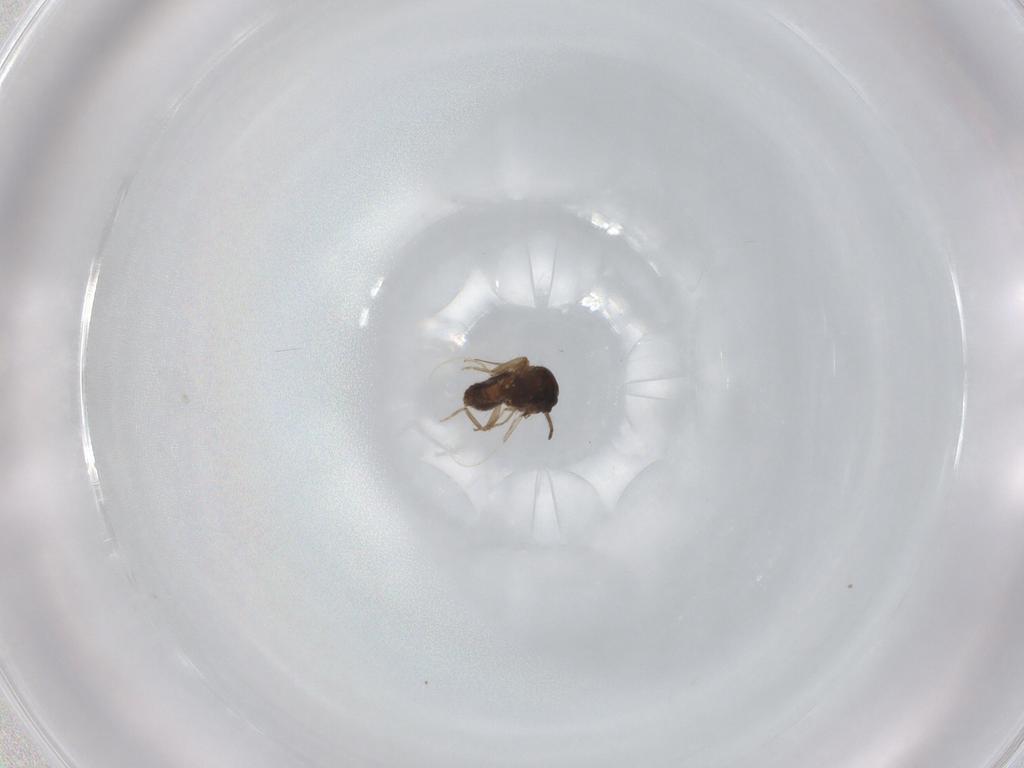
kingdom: Animalia
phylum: Arthropoda
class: Insecta
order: Diptera
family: Ceratopogonidae
